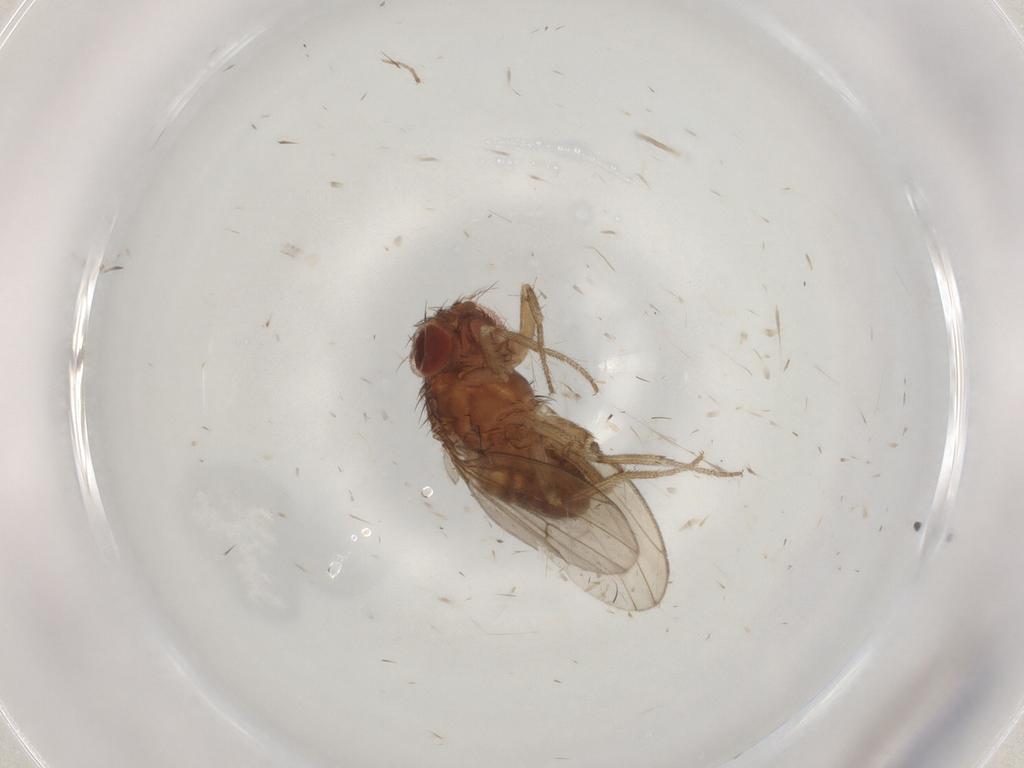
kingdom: Animalia
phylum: Arthropoda
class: Insecta
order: Diptera
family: Drosophilidae
